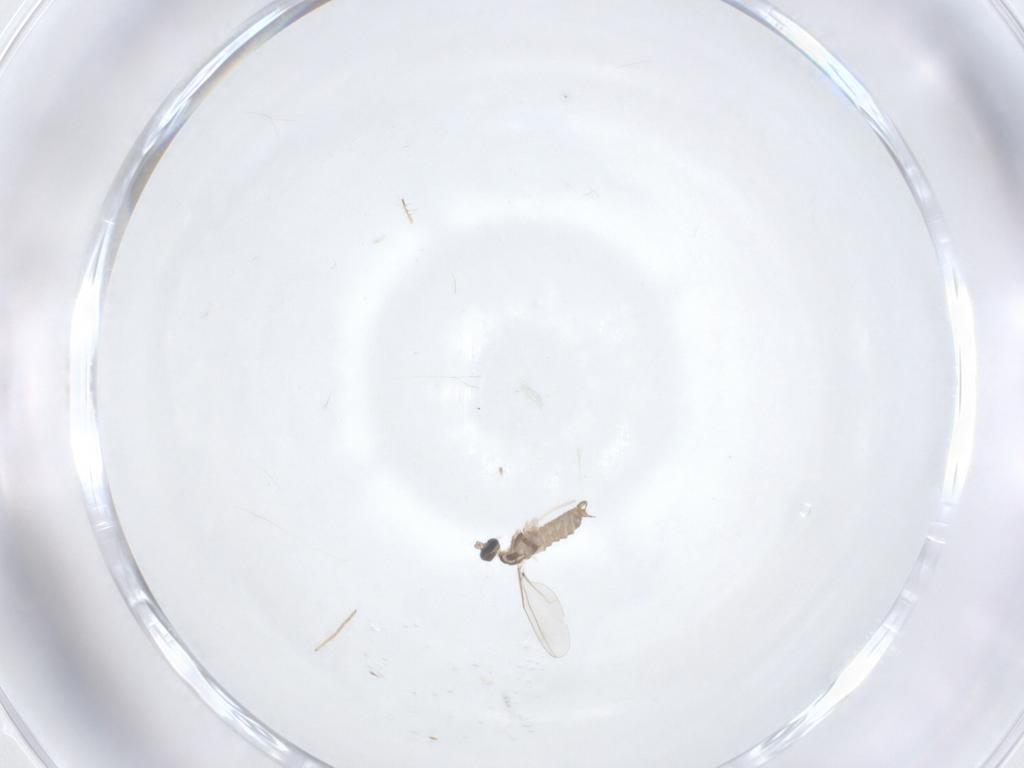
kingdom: Animalia
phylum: Arthropoda
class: Insecta
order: Diptera
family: Cecidomyiidae
